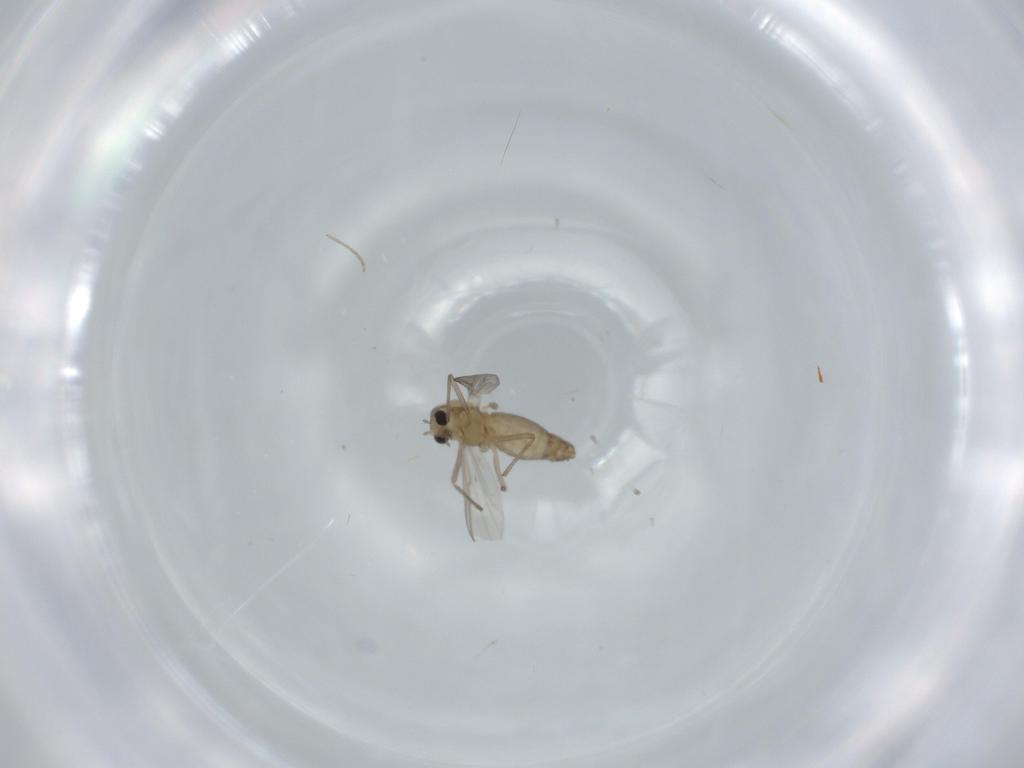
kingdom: Animalia
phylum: Arthropoda
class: Insecta
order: Diptera
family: Chironomidae
